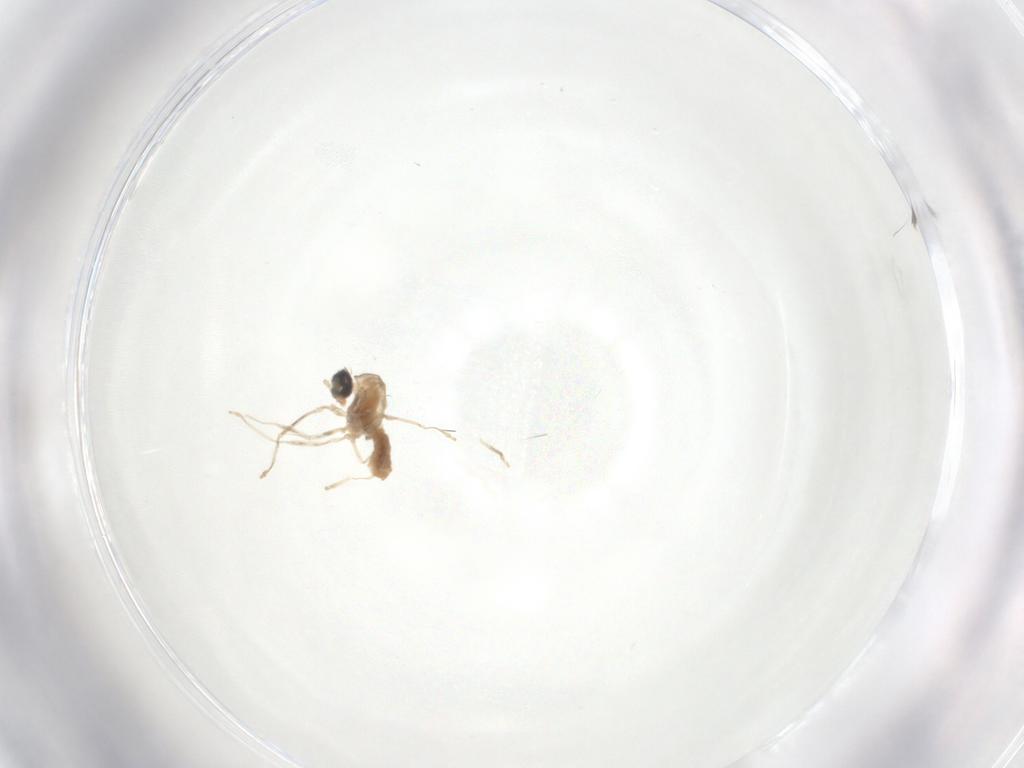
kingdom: Animalia
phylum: Arthropoda
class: Insecta
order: Diptera
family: Cecidomyiidae
